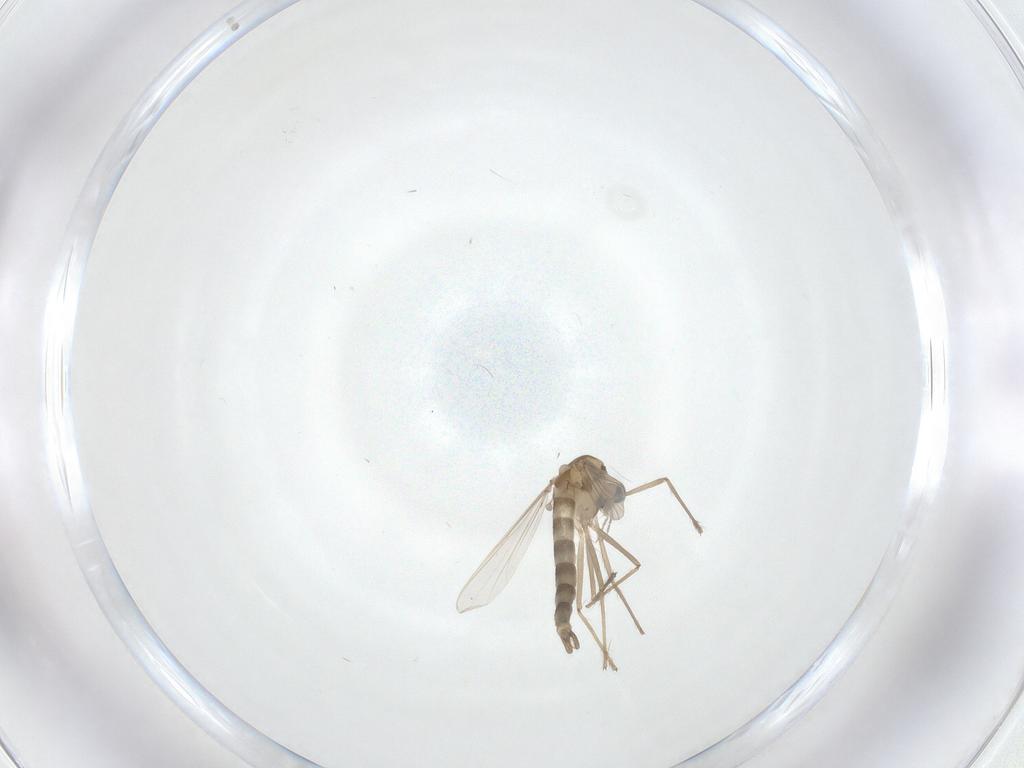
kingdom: Animalia
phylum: Arthropoda
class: Insecta
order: Diptera
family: Chironomidae
